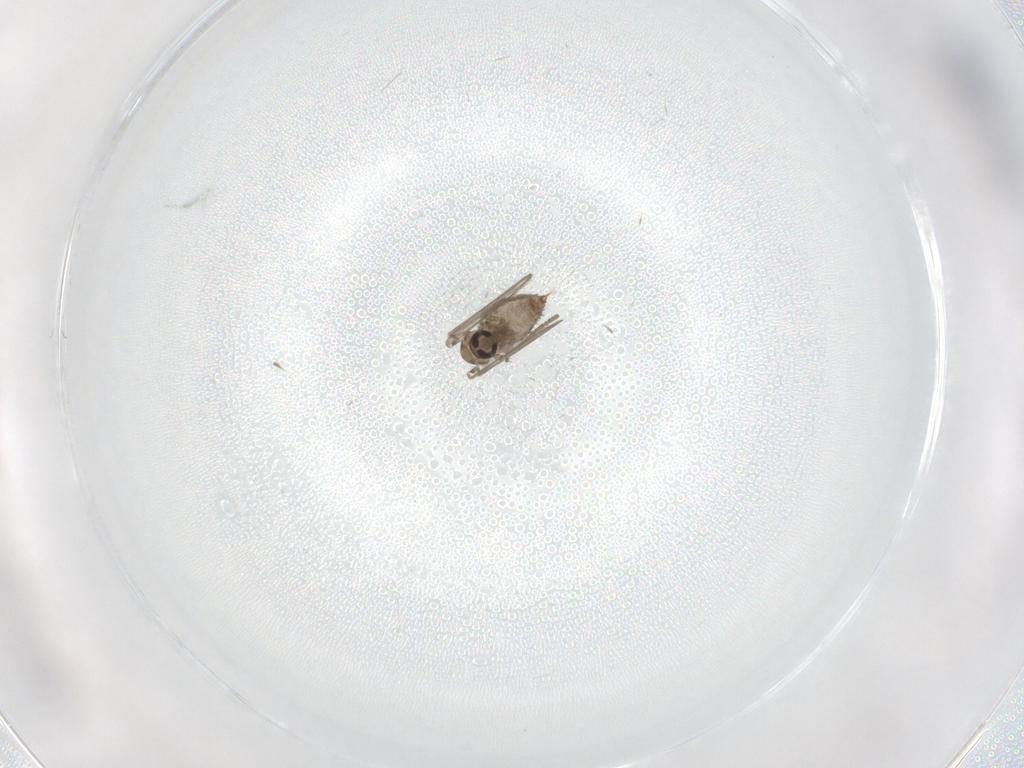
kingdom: Animalia
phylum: Arthropoda
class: Insecta
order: Diptera
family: Psychodidae
